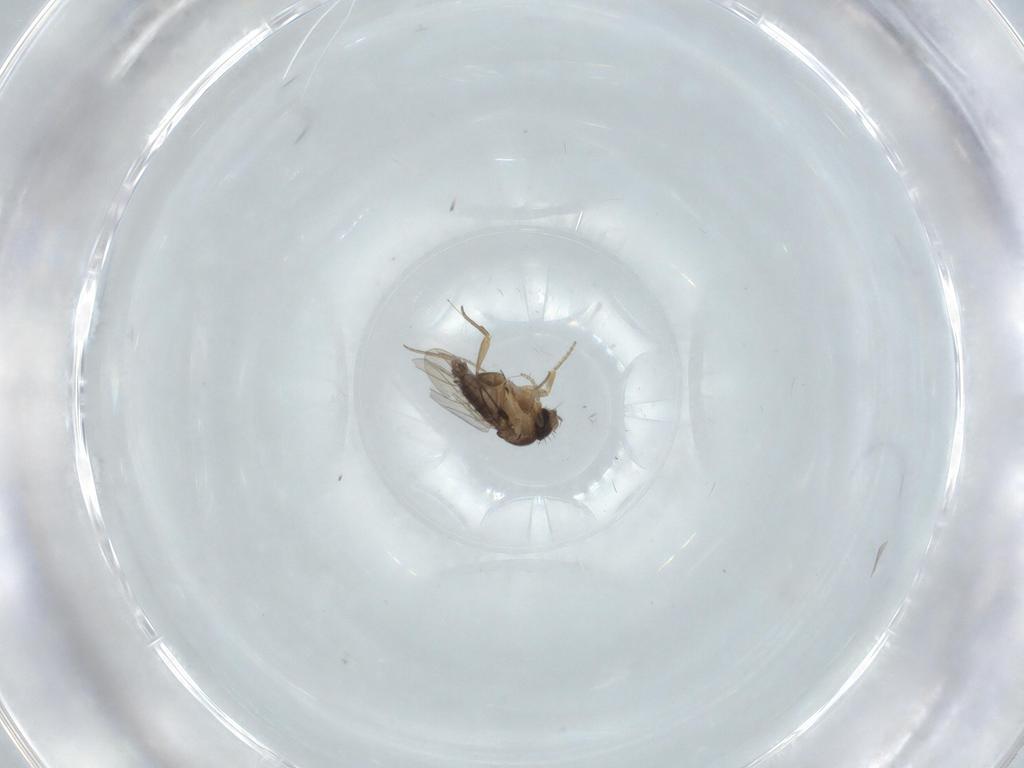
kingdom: Animalia
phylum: Arthropoda
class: Insecta
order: Diptera
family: Phoridae
